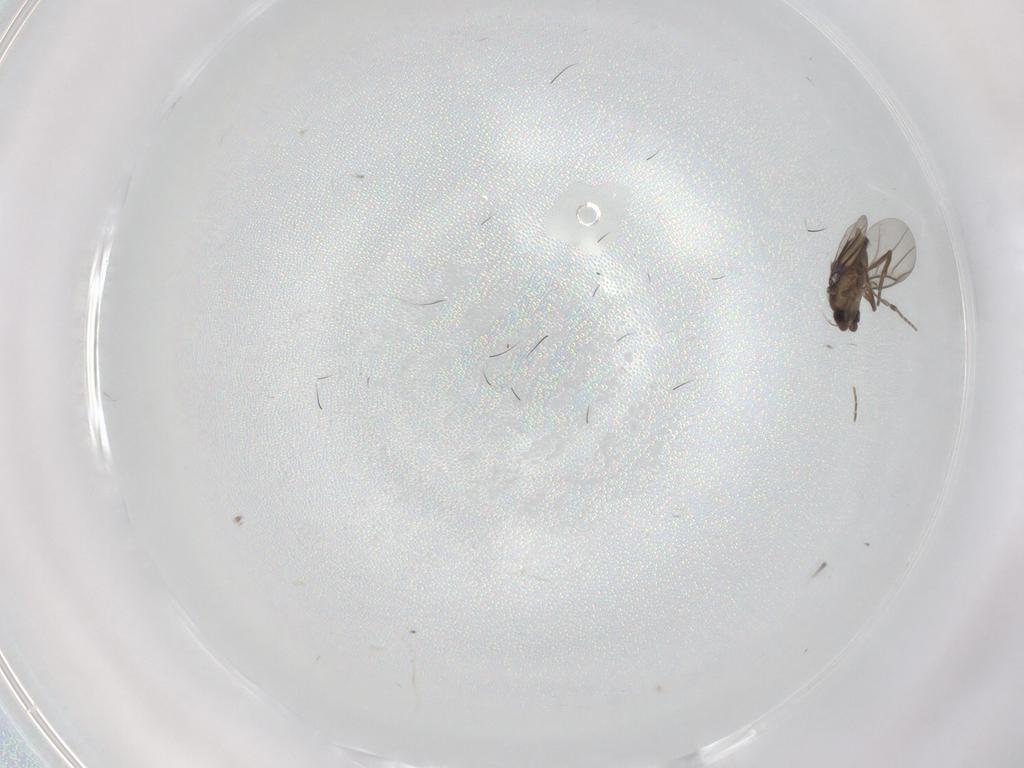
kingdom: Animalia
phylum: Arthropoda
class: Insecta
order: Diptera
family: Cecidomyiidae
